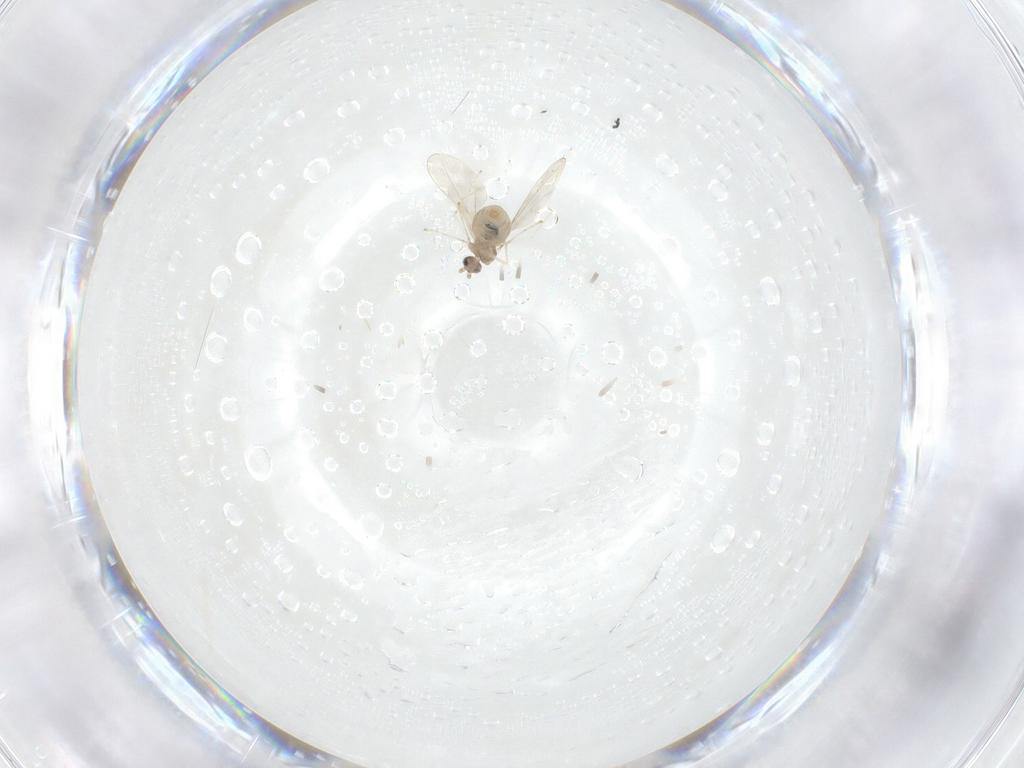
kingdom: Animalia
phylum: Arthropoda
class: Insecta
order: Diptera
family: Cecidomyiidae
